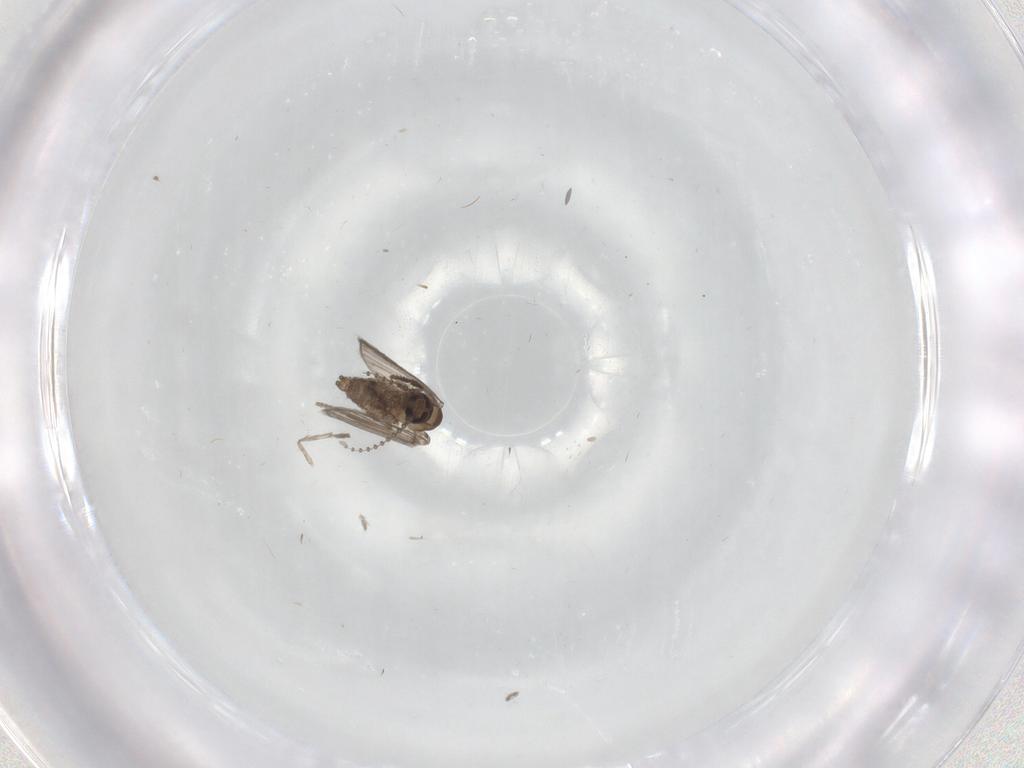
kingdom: Animalia
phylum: Arthropoda
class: Insecta
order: Diptera
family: Psychodidae
